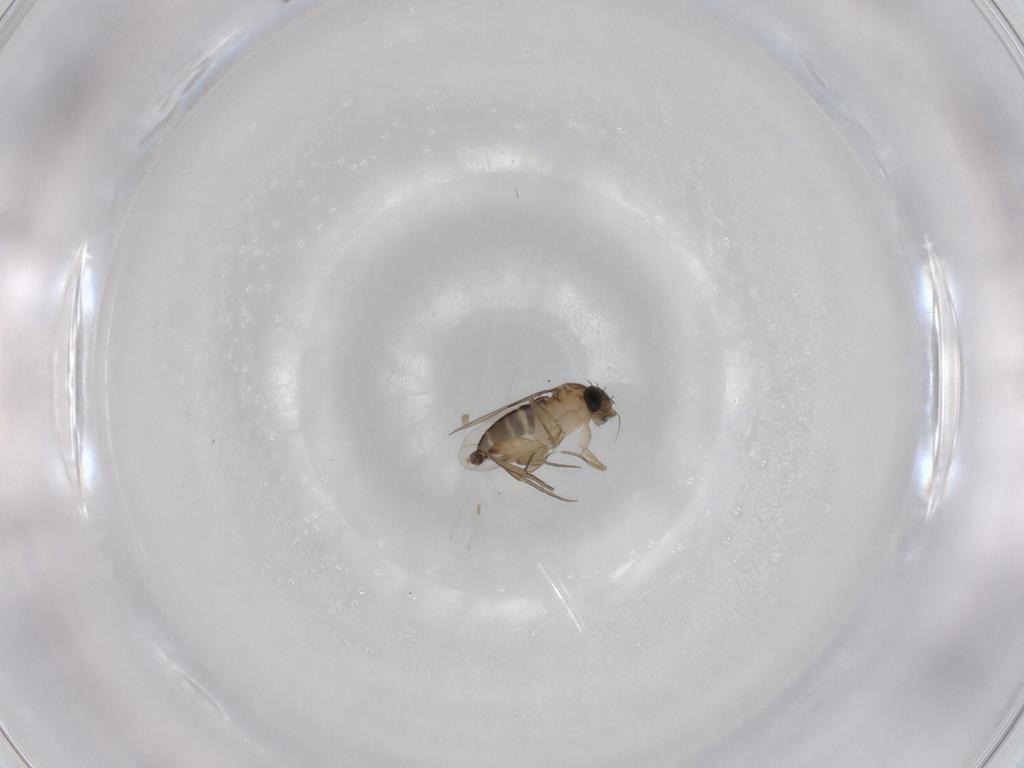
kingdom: Animalia
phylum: Arthropoda
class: Insecta
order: Diptera
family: Phoridae
